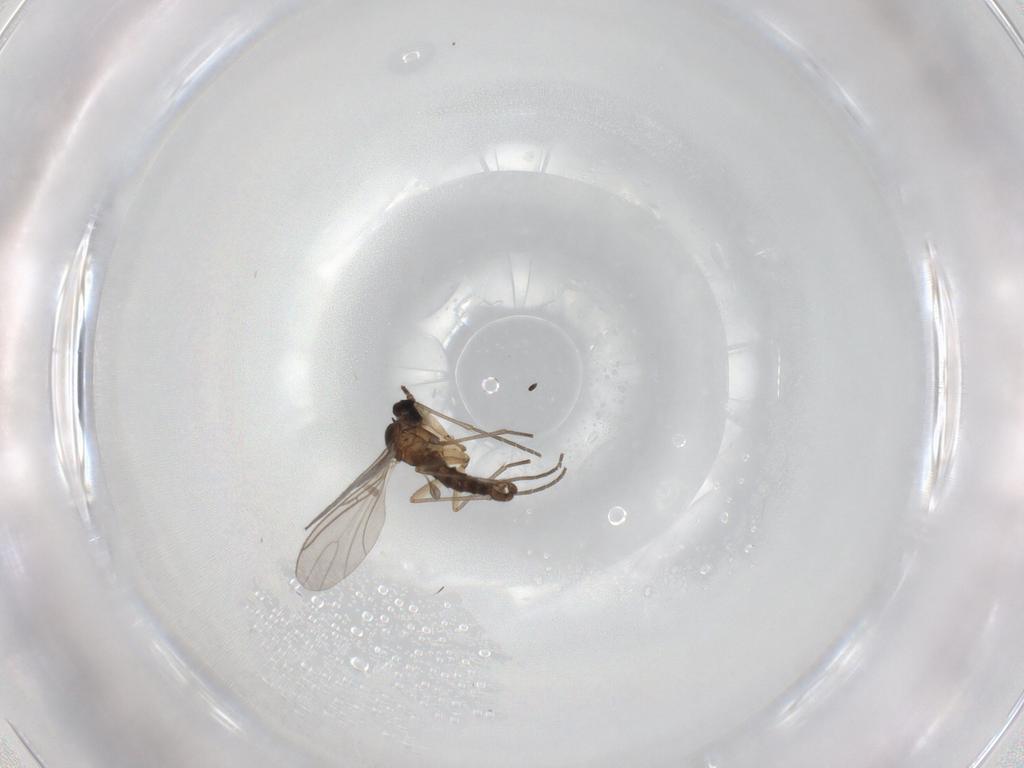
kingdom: Animalia
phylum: Arthropoda
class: Insecta
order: Diptera
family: Sciaridae
